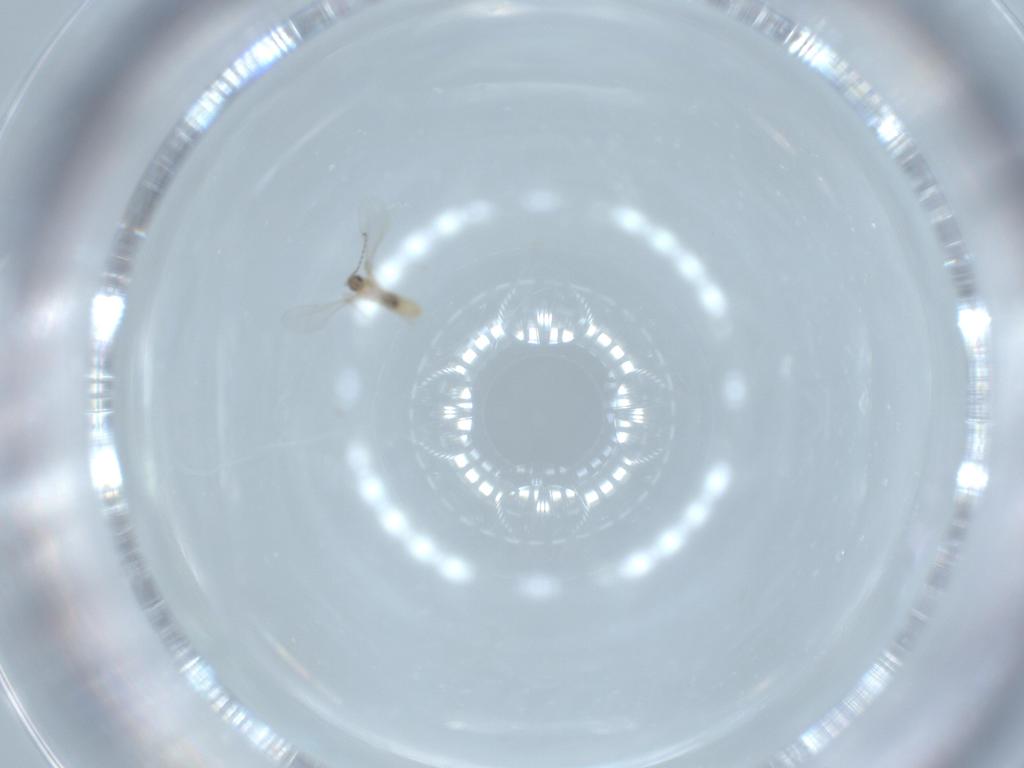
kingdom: Animalia
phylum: Arthropoda
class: Insecta
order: Diptera
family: Cecidomyiidae
